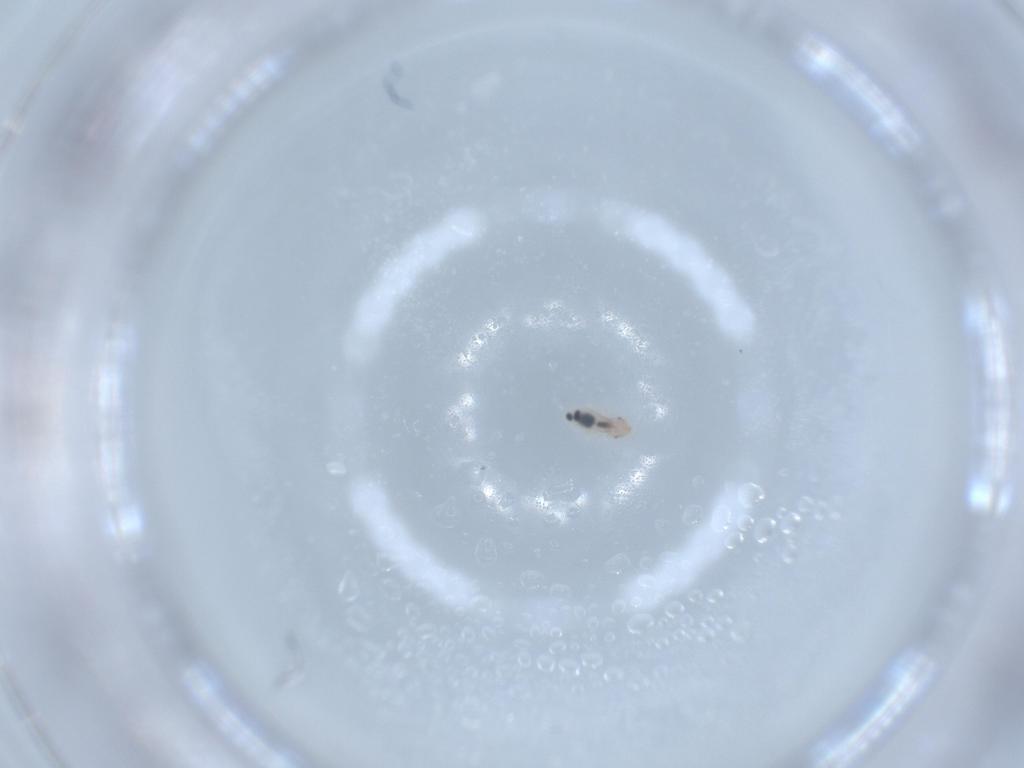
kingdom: Animalia
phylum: Arthropoda
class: Insecta
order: Psocodea
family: Liposcelididae
